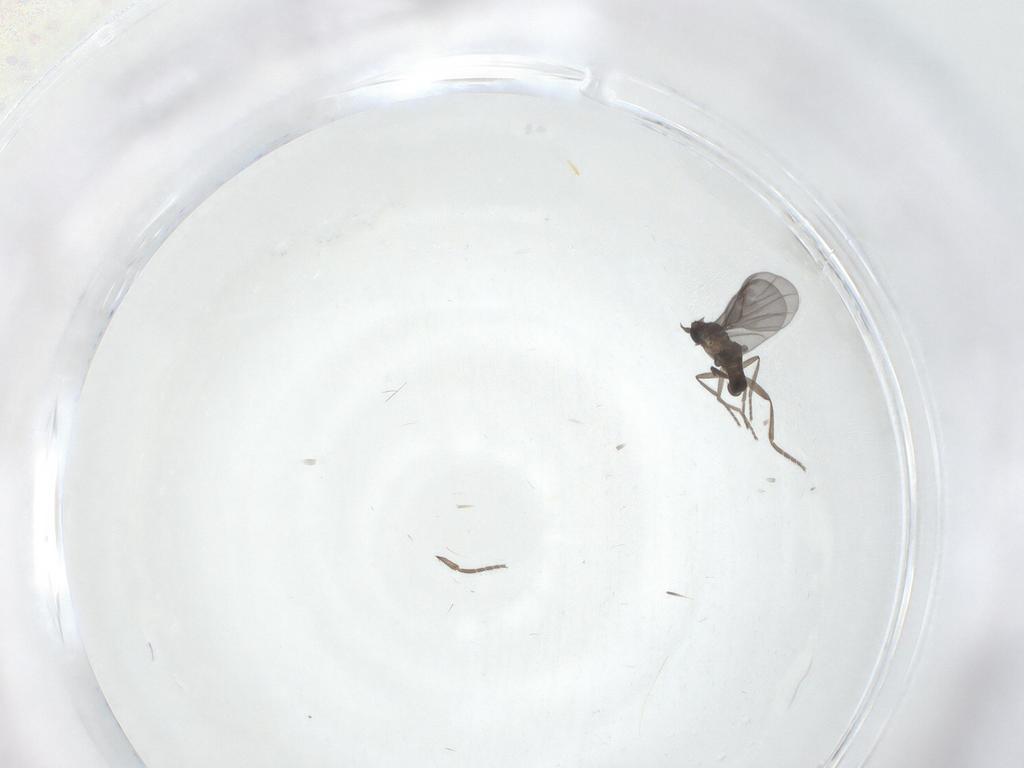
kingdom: Animalia
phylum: Arthropoda
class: Insecta
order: Diptera
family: Phoridae
